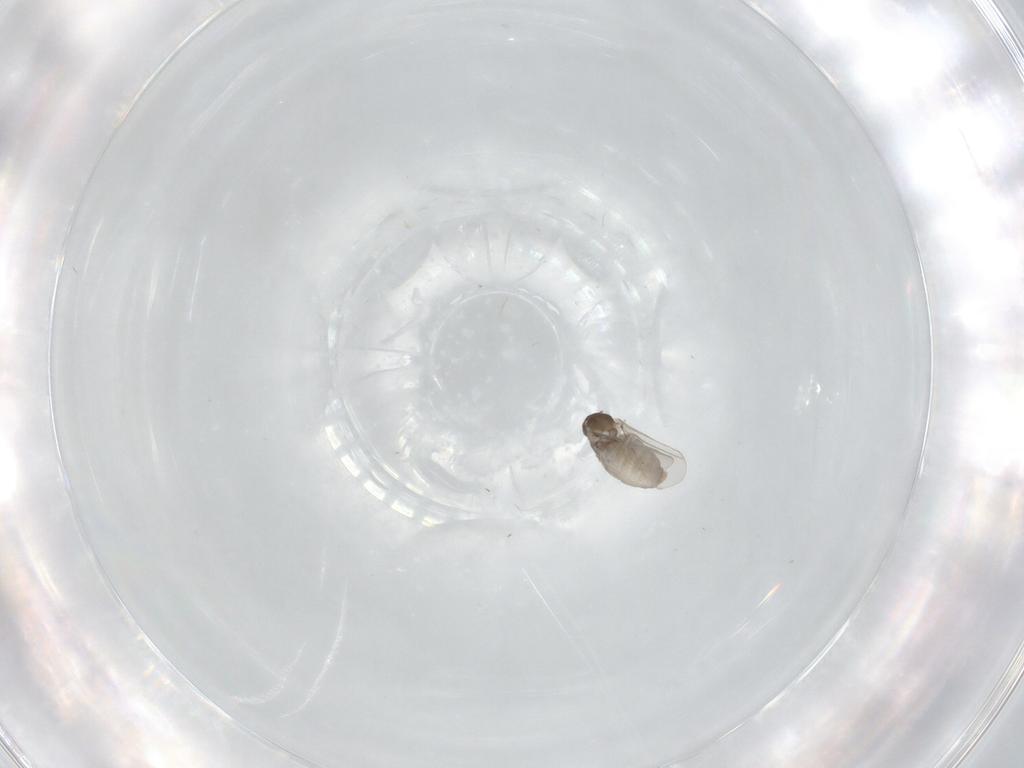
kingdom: Animalia
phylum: Arthropoda
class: Insecta
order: Diptera
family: Cecidomyiidae
